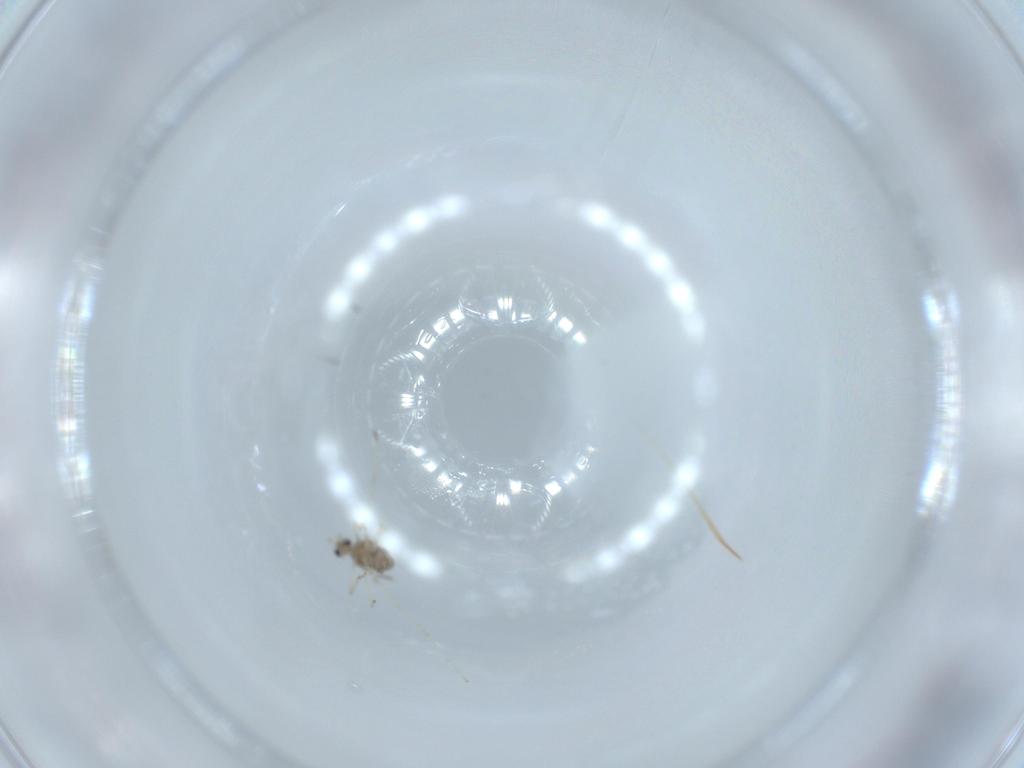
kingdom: Animalia
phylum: Arthropoda
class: Insecta
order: Diptera
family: Cecidomyiidae
